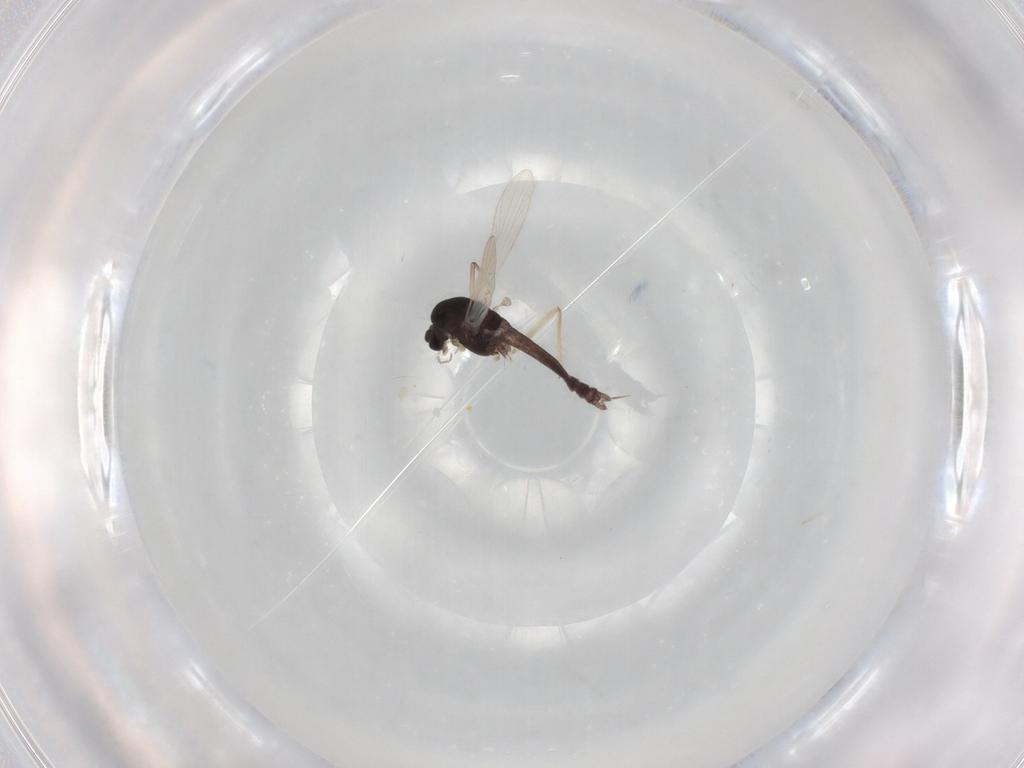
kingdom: Animalia
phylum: Arthropoda
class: Insecta
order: Diptera
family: Chironomidae
